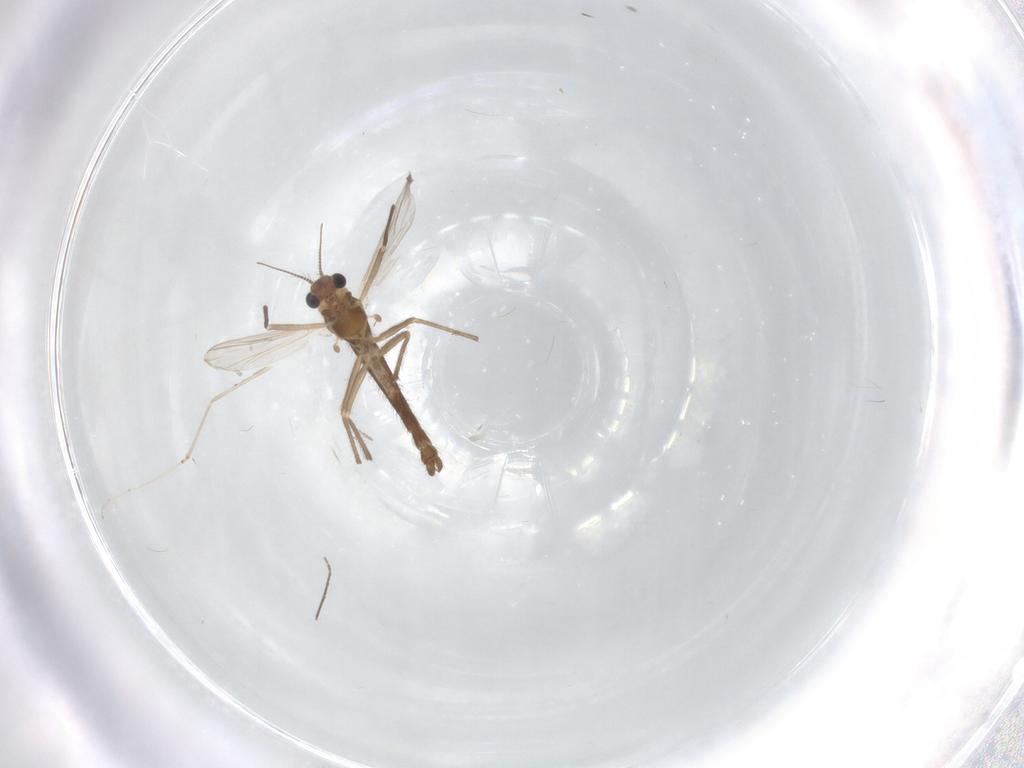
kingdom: Animalia
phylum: Arthropoda
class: Insecta
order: Diptera
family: Chironomidae
